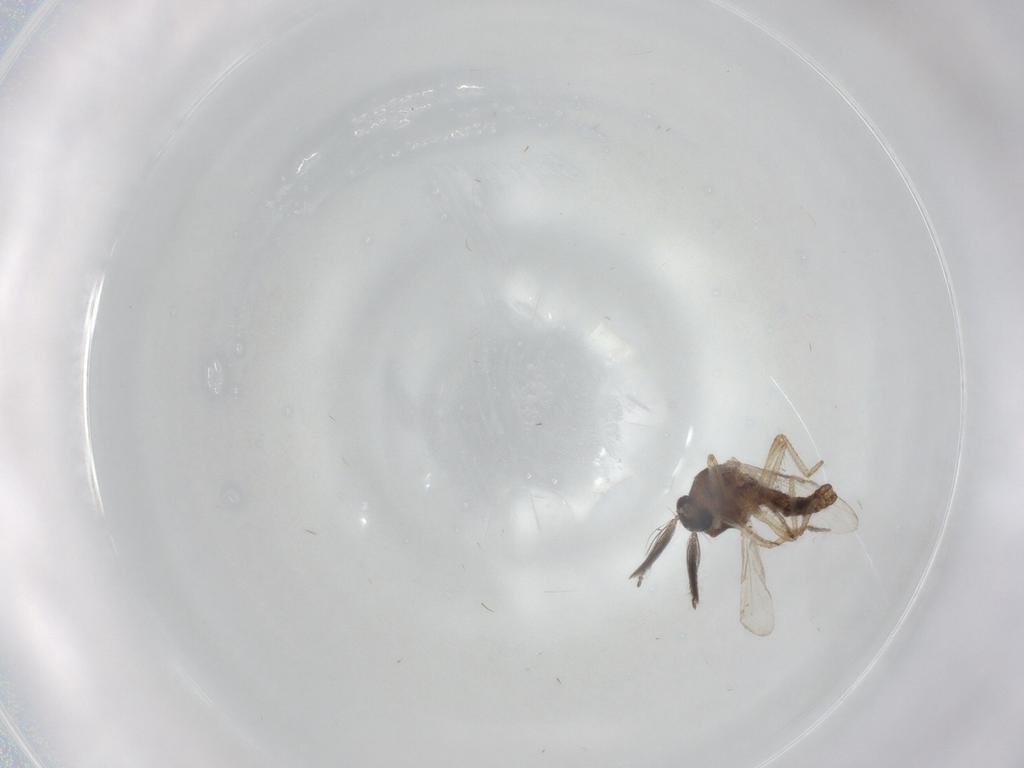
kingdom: Animalia
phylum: Arthropoda
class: Insecta
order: Diptera
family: Ceratopogonidae
